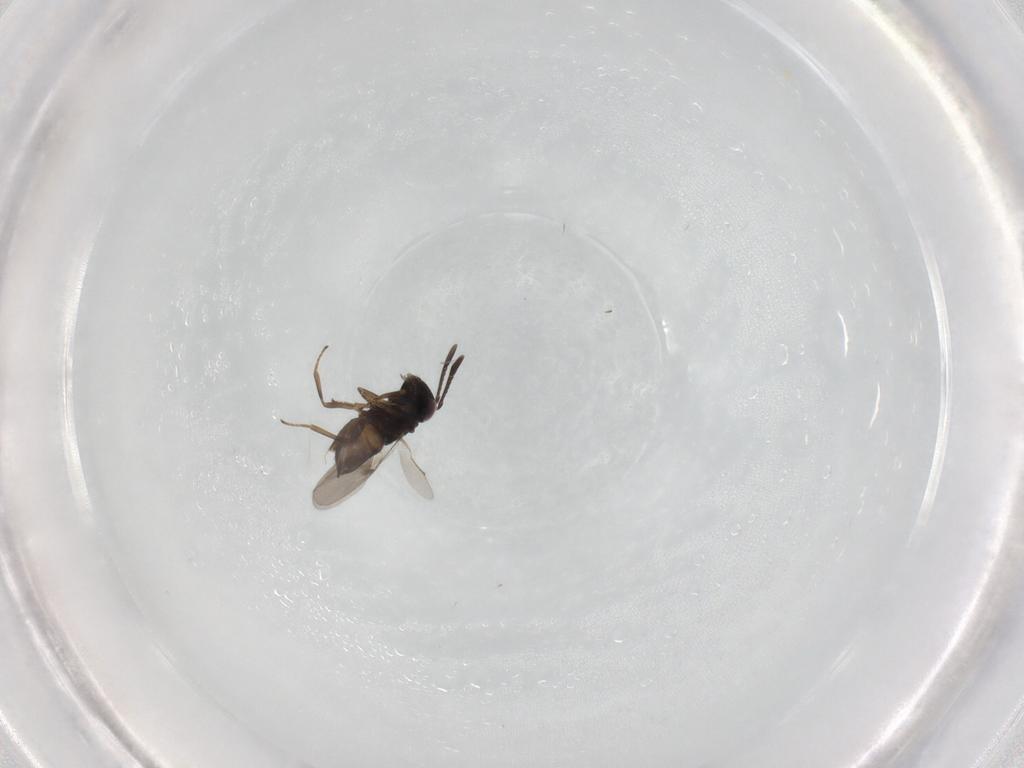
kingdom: Animalia
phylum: Arthropoda
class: Insecta
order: Hymenoptera
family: Encyrtidae
